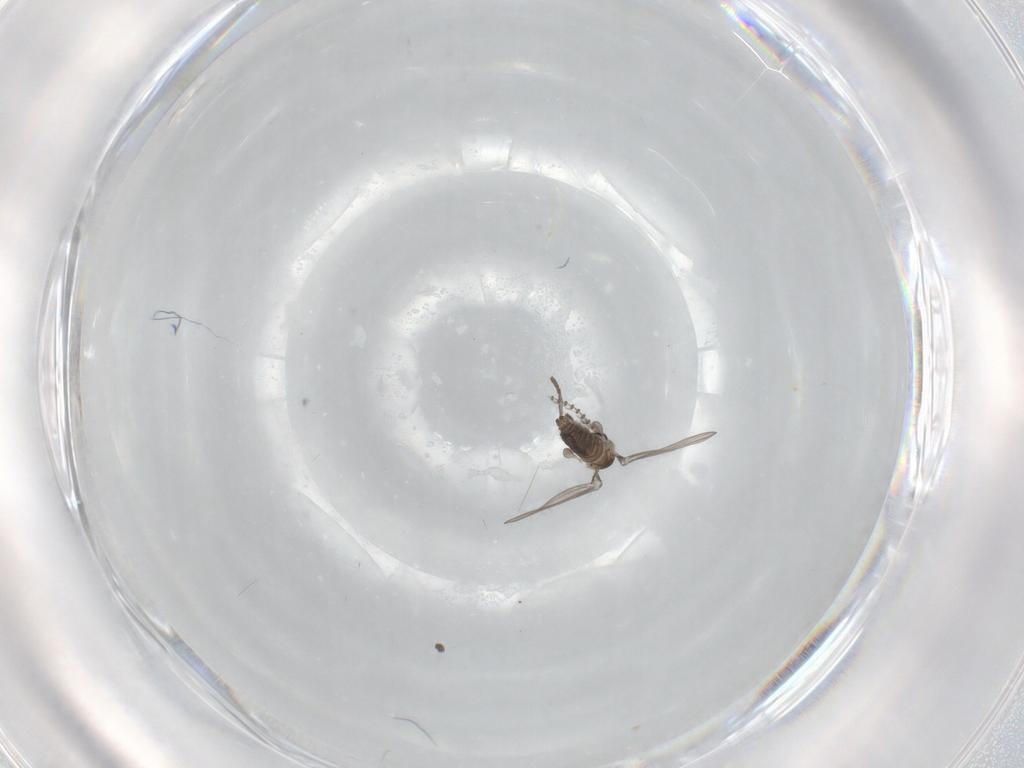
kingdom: Animalia
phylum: Arthropoda
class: Insecta
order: Diptera
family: Psychodidae
